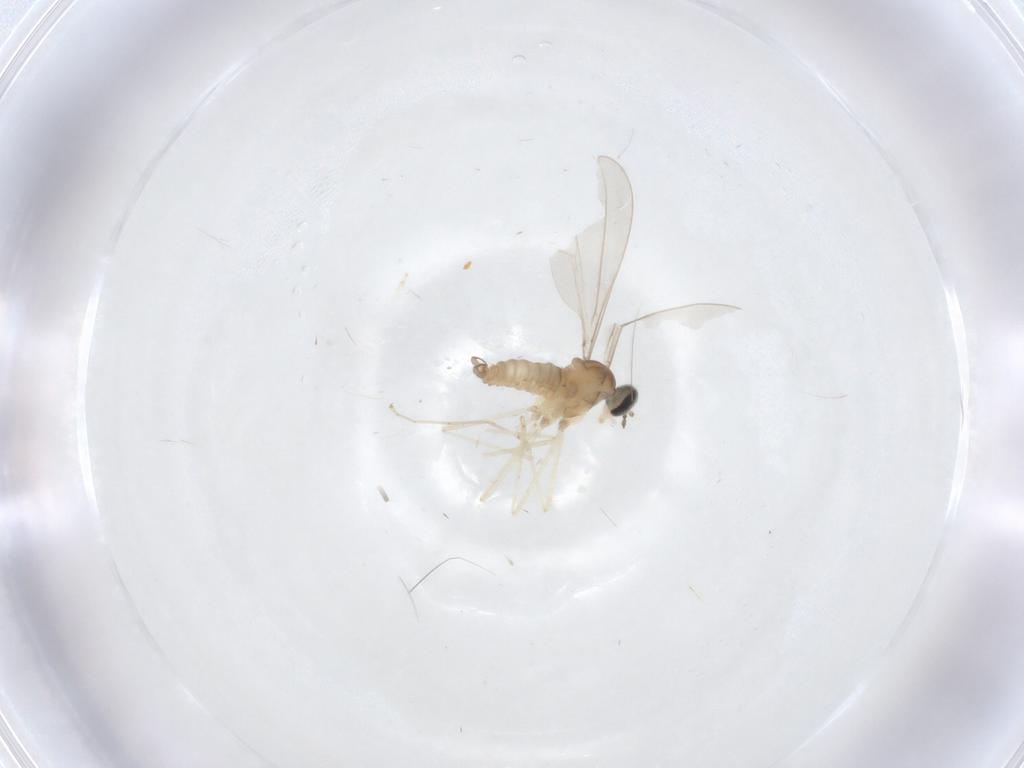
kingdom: Animalia
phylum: Arthropoda
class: Insecta
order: Diptera
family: Cecidomyiidae
